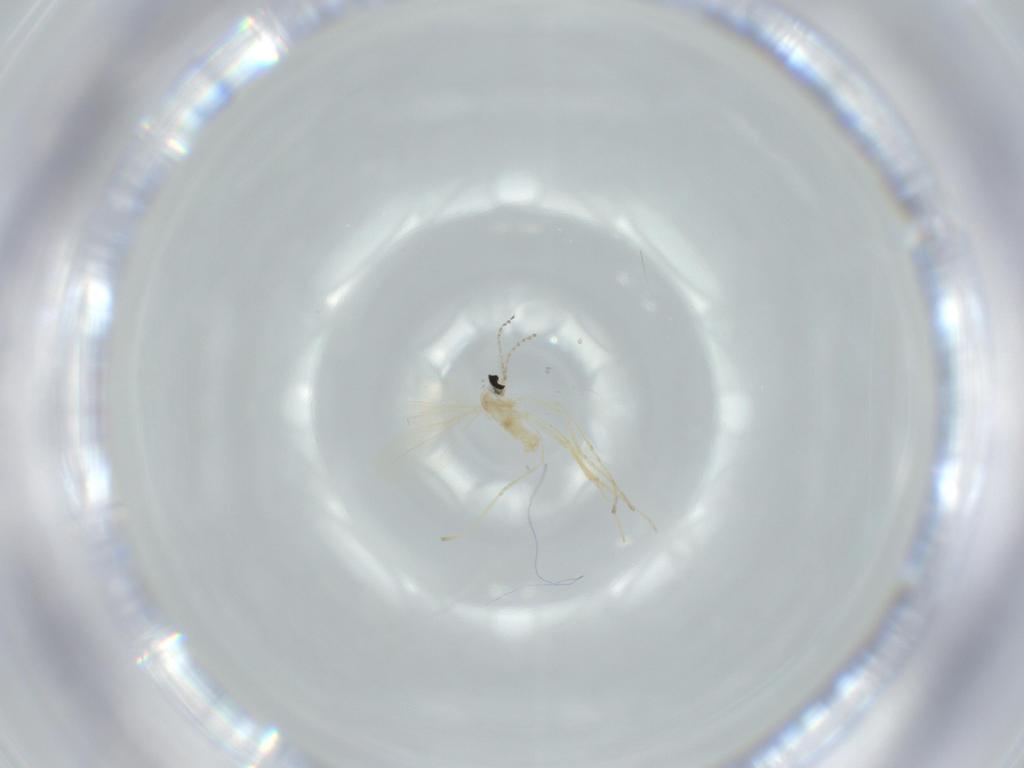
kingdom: Animalia
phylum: Arthropoda
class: Insecta
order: Diptera
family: Cecidomyiidae
